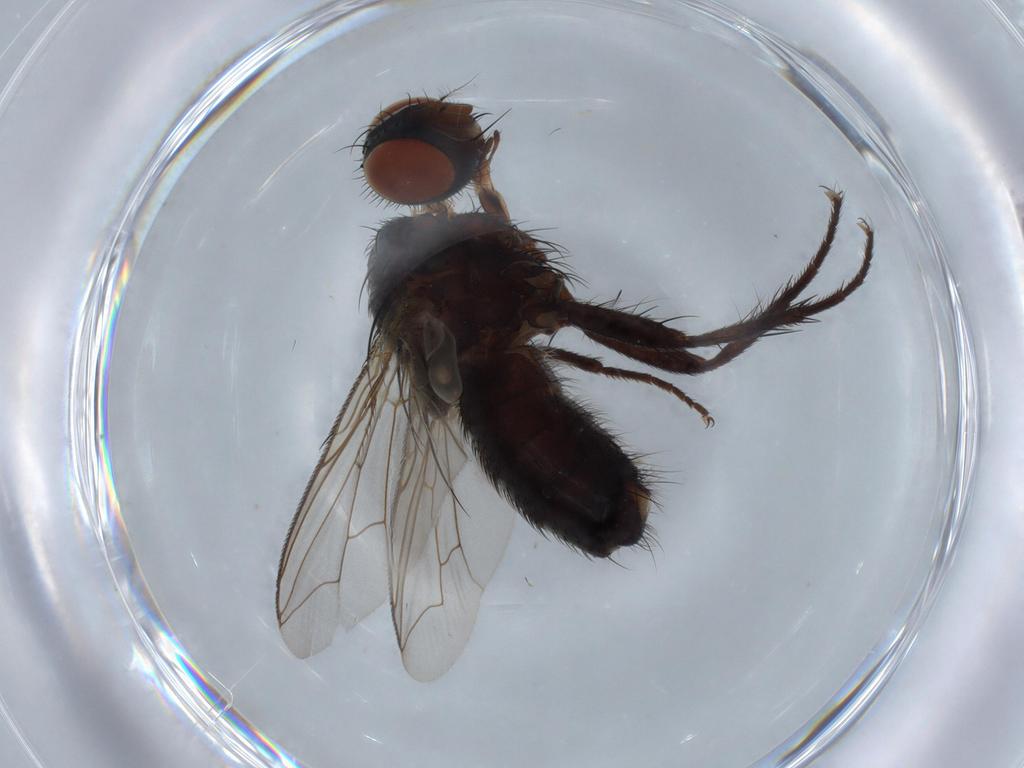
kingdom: Animalia
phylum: Arthropoda
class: Insecta
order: Diptera
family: Sarcophagidae
